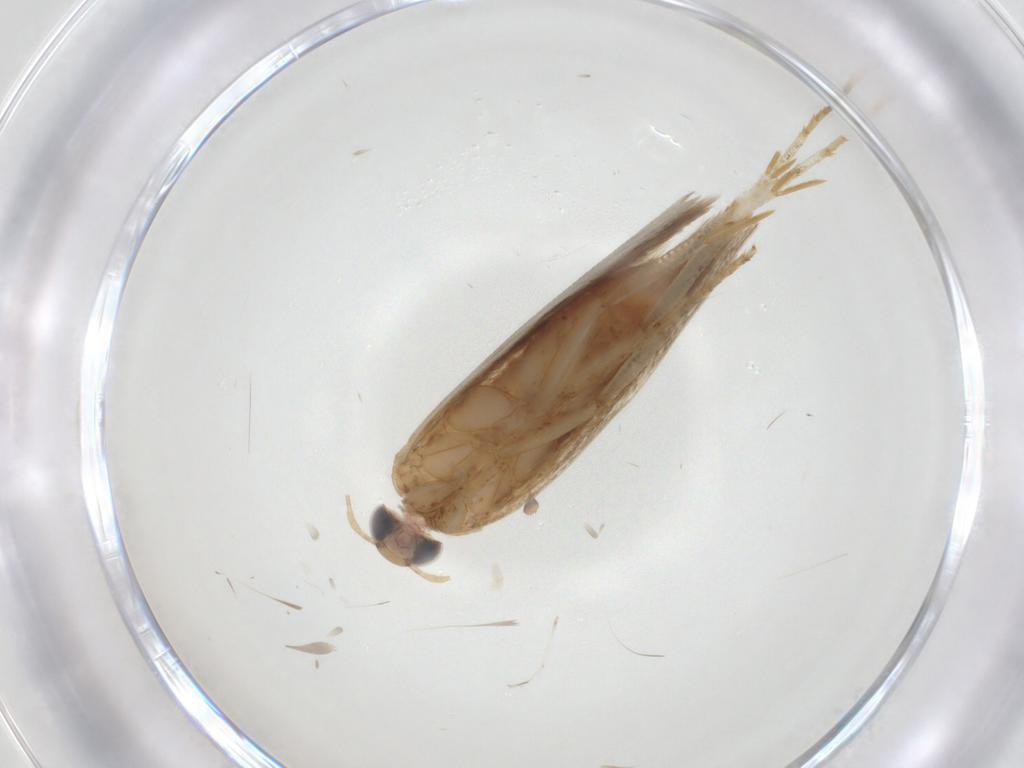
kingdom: Animalia
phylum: Arthropoda
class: Insecta
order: Lepidoptera
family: Gelechiidae
